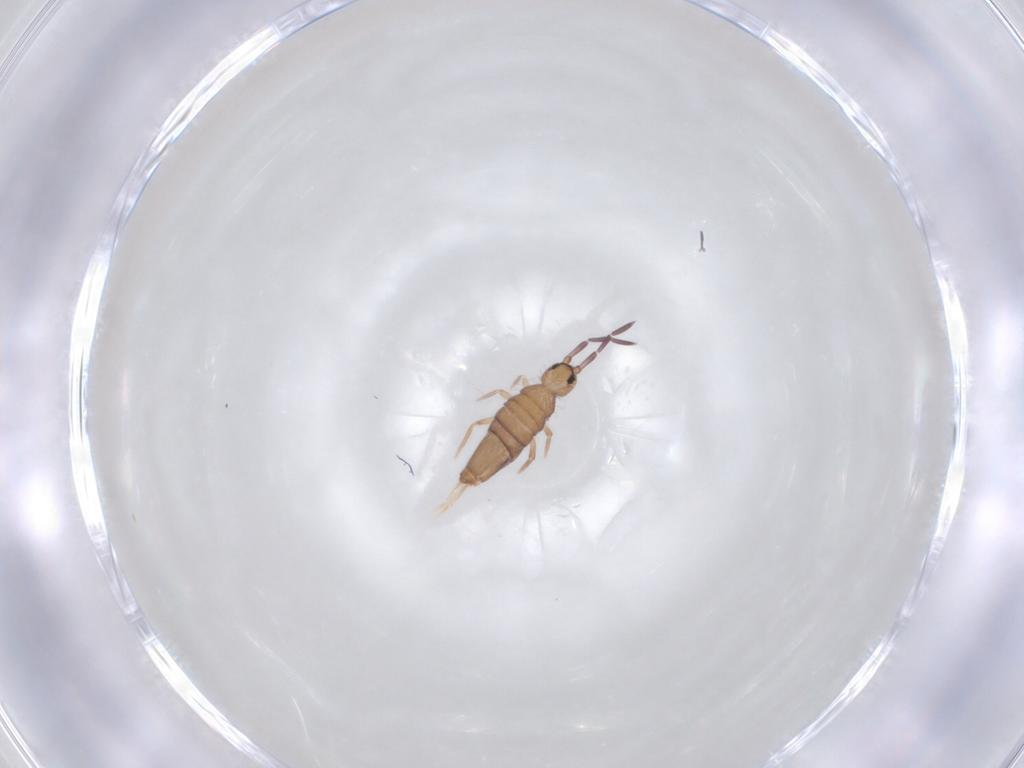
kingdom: Animalia
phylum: Arthropoda
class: Collembola
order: Entomobryomorpha
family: Entomobryidae
